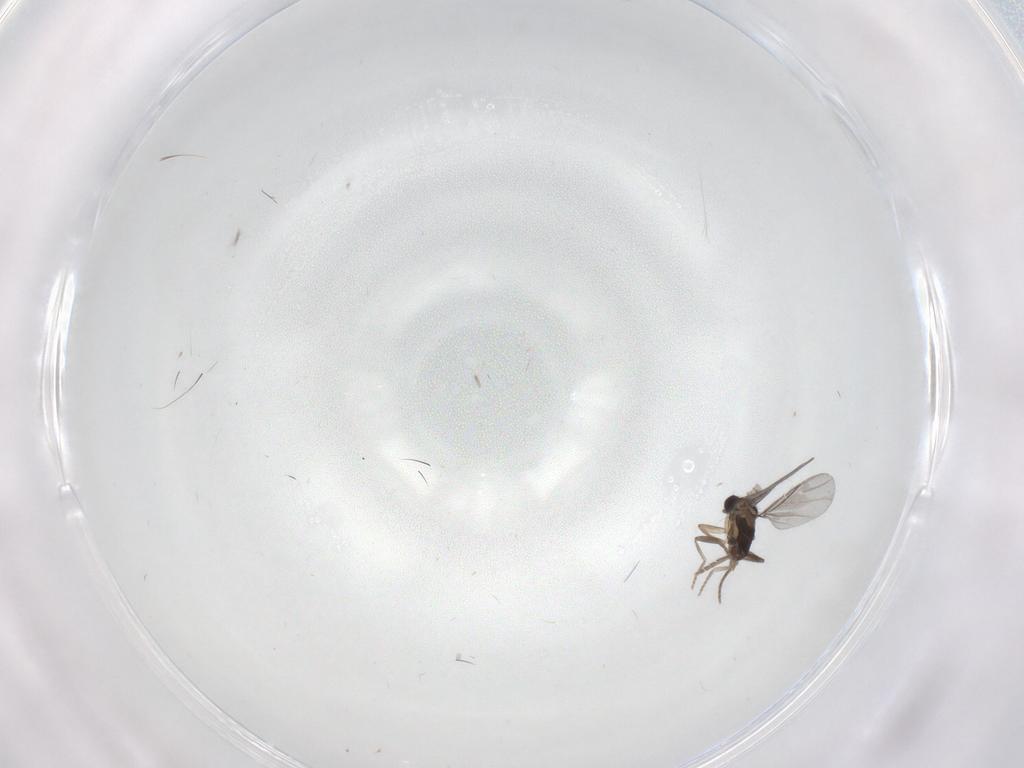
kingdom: Animalia
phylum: Arthropoda
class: Insecta
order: Diptera
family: Sciaridae
